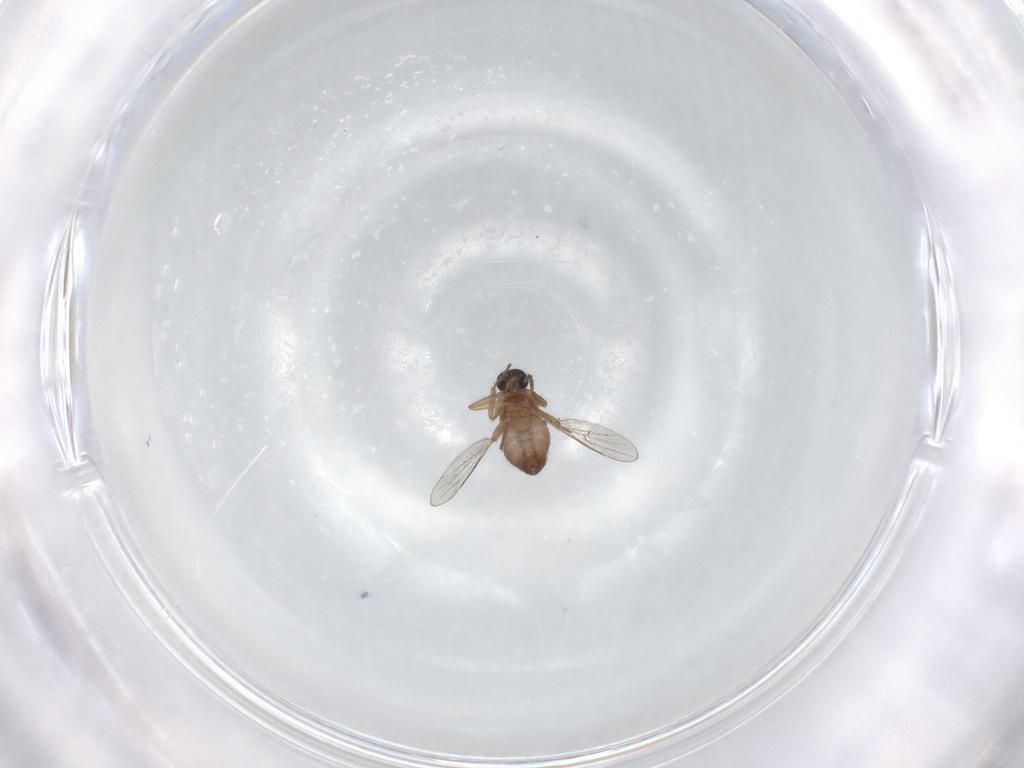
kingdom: Animalia
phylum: Arthropoda
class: Insecta
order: Diptera
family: Ceratopogonidae
